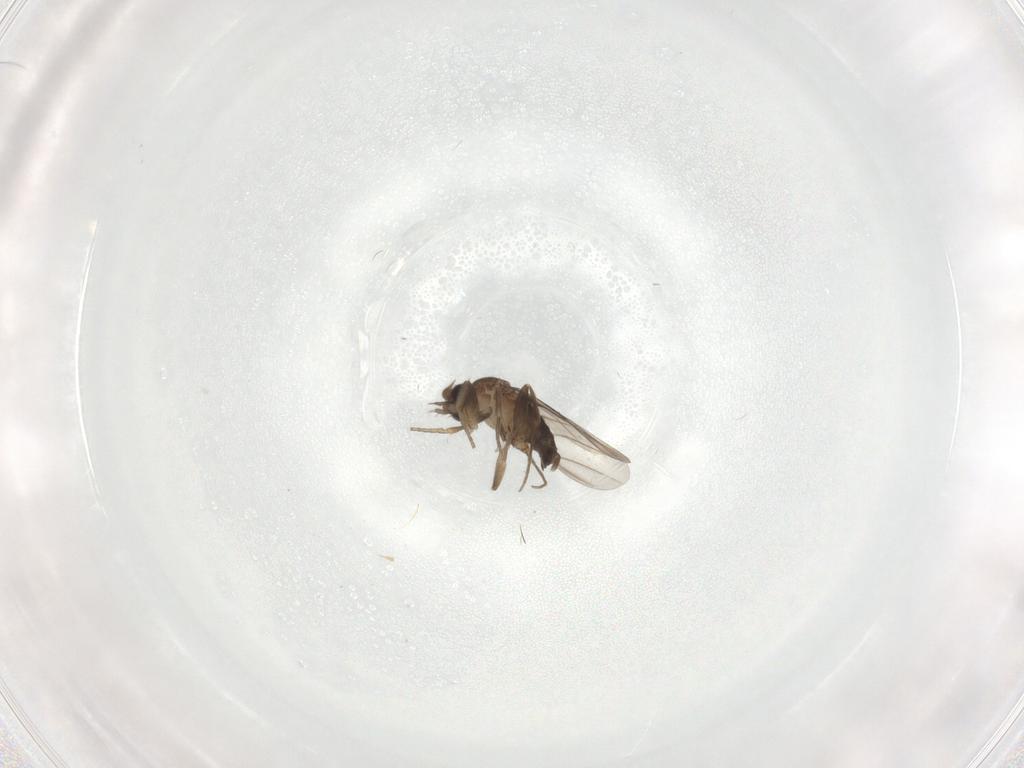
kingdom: Animalia
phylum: Arthropoda
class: Insecta
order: Diptera
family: Phoridae
